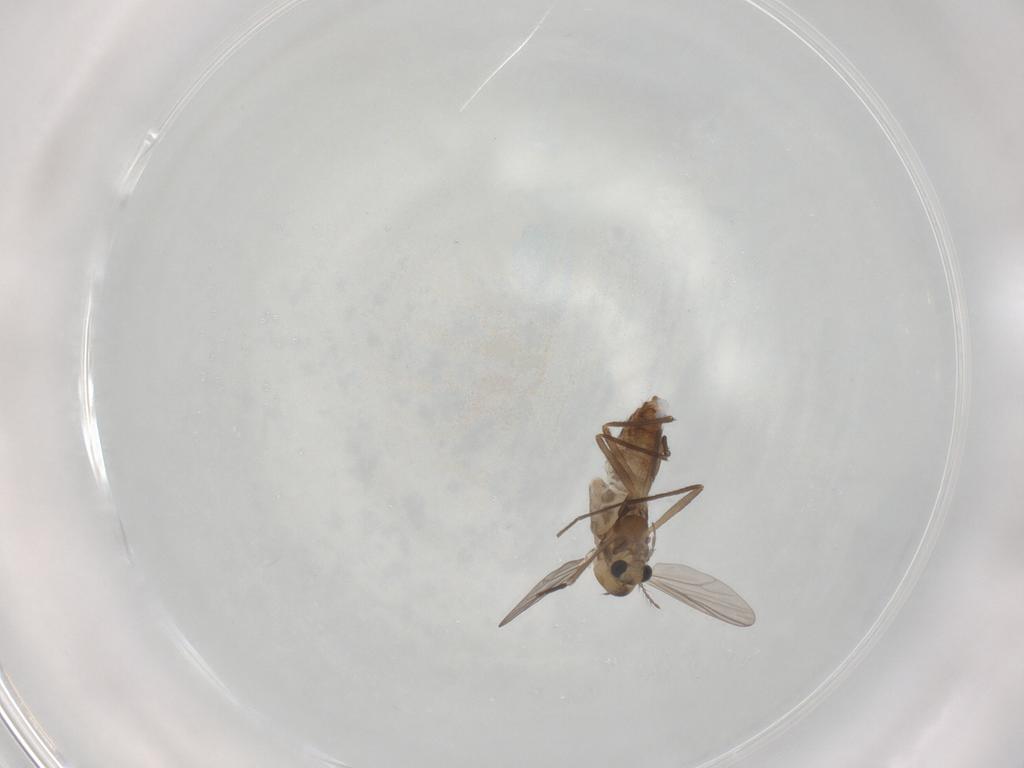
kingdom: Animalia
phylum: Arthropoda
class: Insecta
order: Diptera
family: Chironomidae
